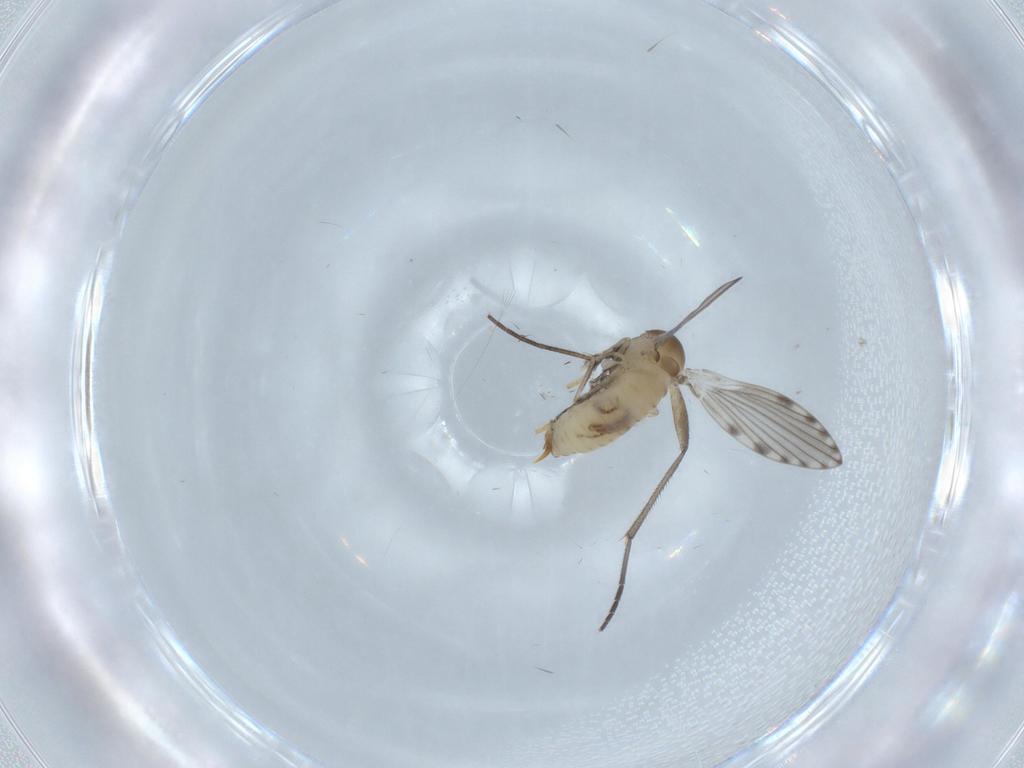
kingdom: Animalia
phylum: Arthropoda
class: Insecta
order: Diptera
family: Psychodidae
